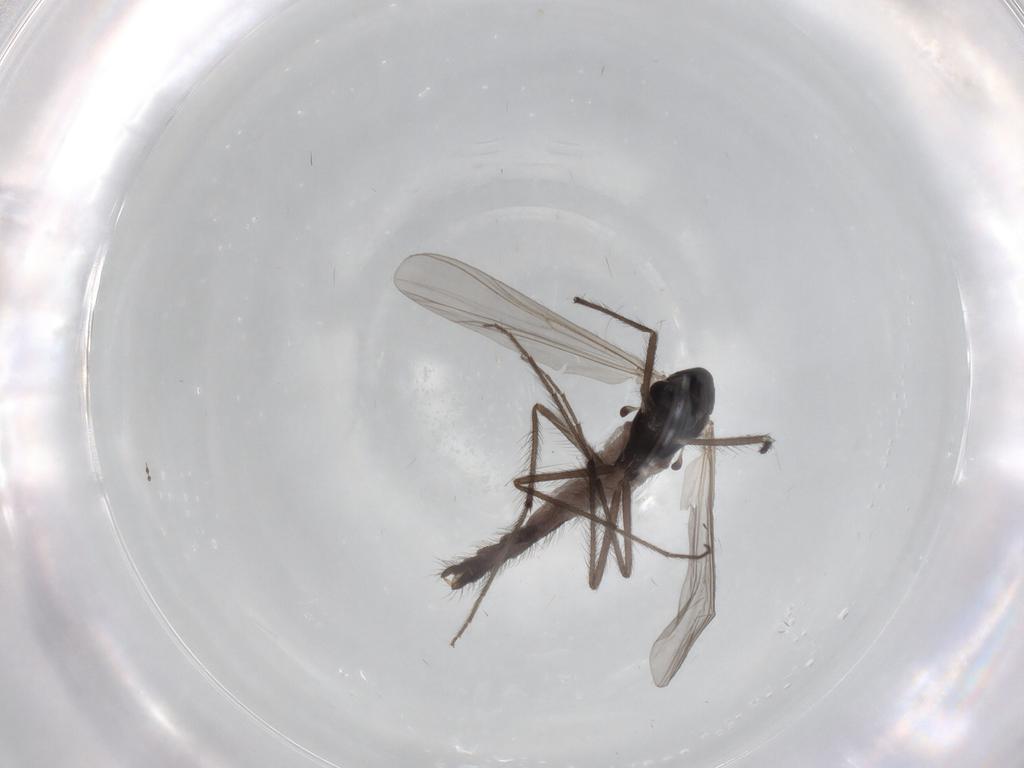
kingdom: Animalia
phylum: Arthropoda
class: Insecta
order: Diptera
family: Chironomidae
